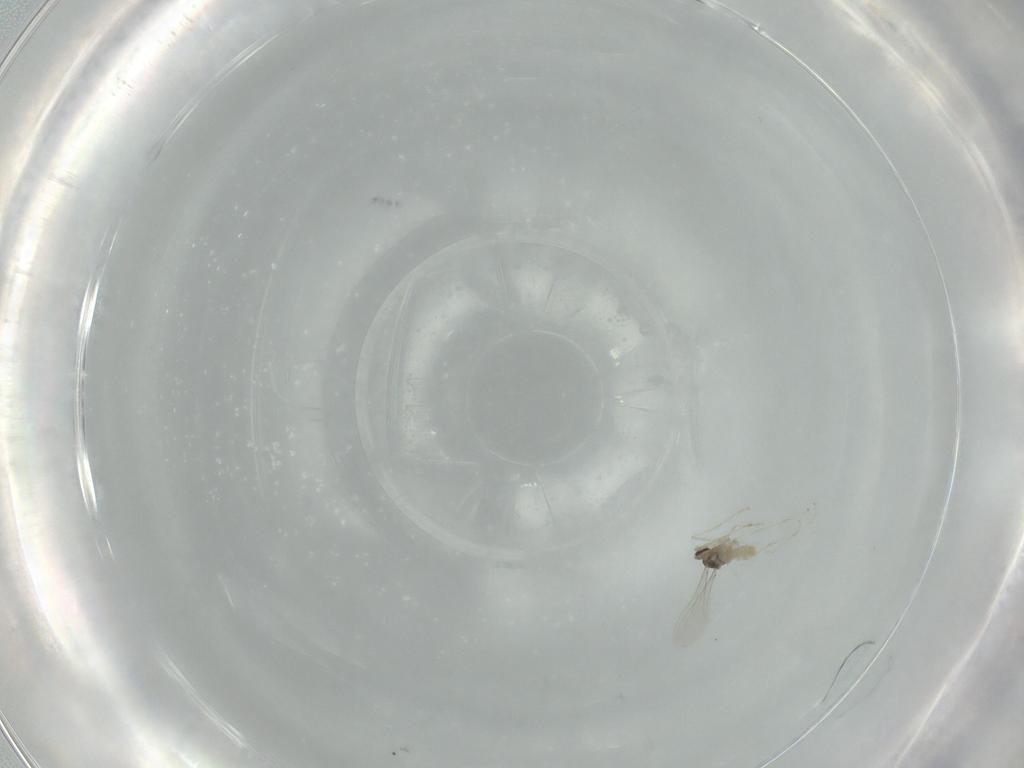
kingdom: Animalia
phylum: Arthropoda
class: Insecta
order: Diptera
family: Cecidomyiidae
